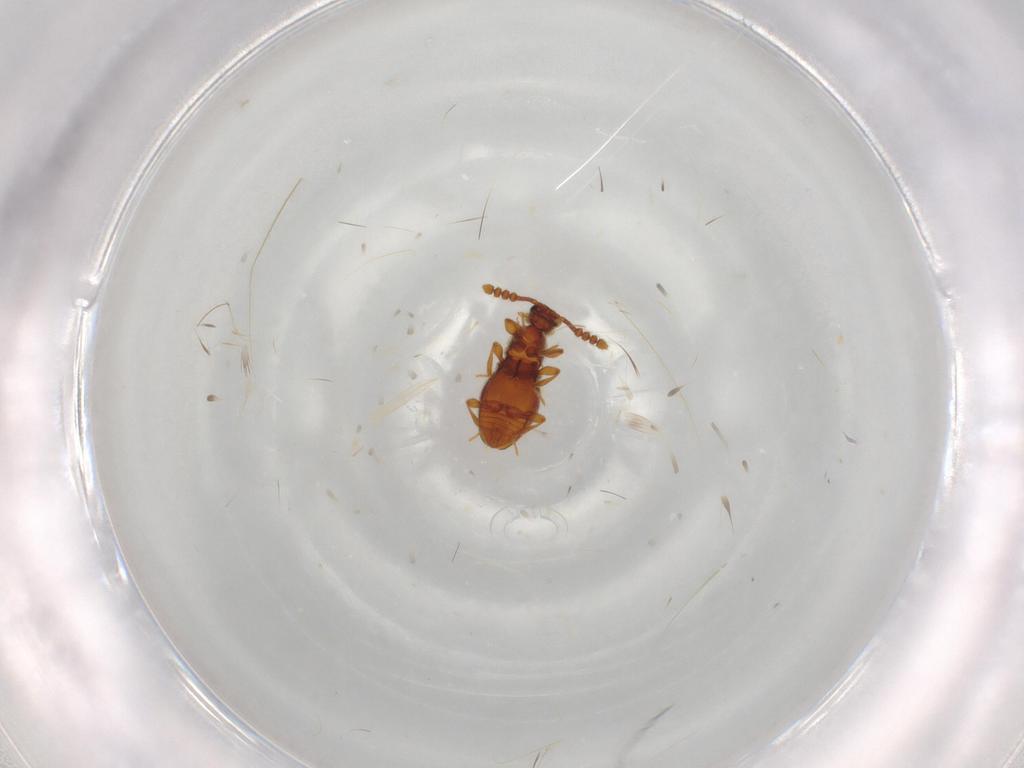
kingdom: Animalia
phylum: Arthropoda
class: Insecta
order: Coleoptera
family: Staphylinidae
